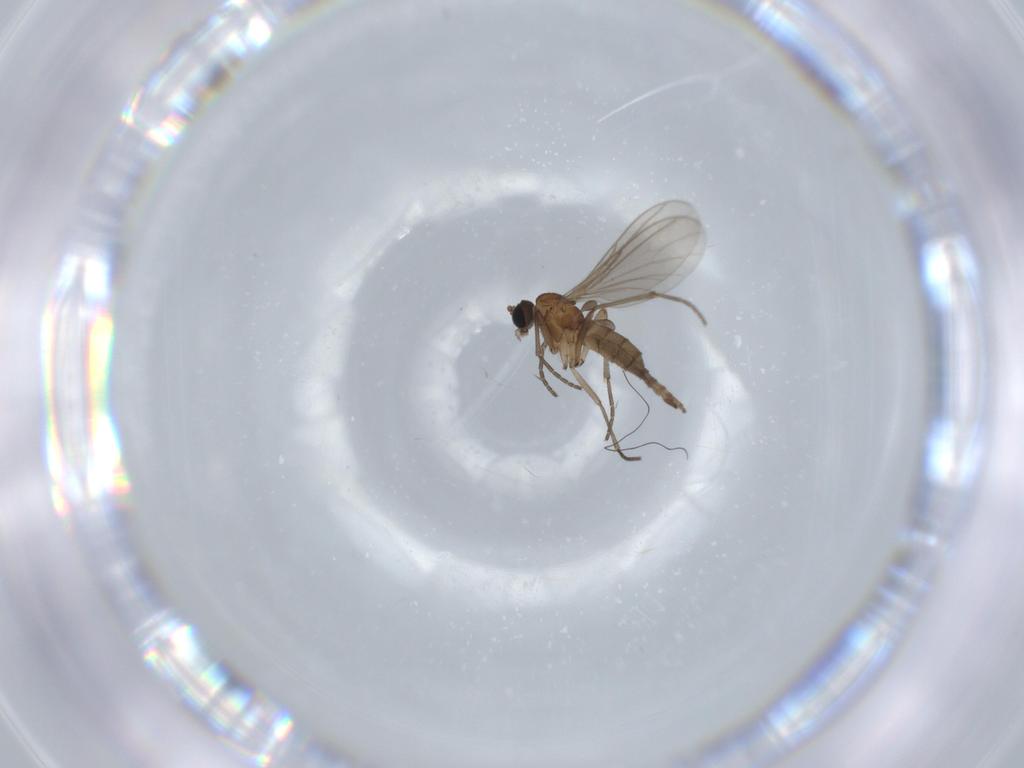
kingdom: Animalia
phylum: Arthropoda
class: Insecta
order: Diptera
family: Sciaridae
